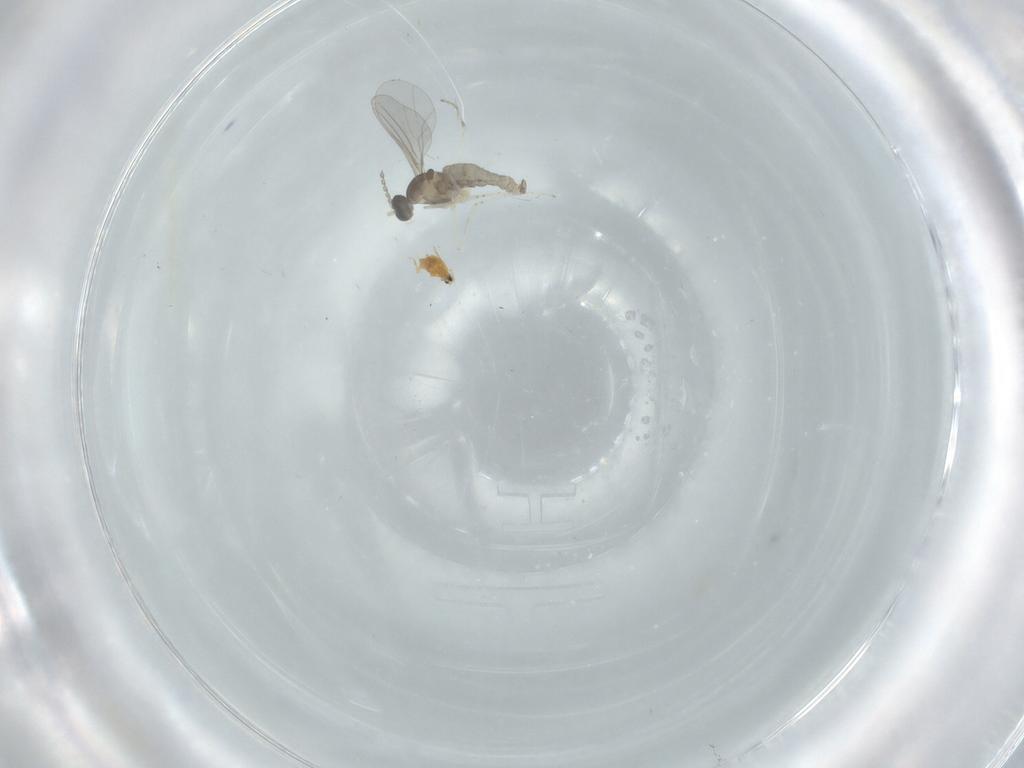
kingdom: Animalia
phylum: Arthropoda
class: Insecta
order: Diptera
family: Cecidomyiidae
